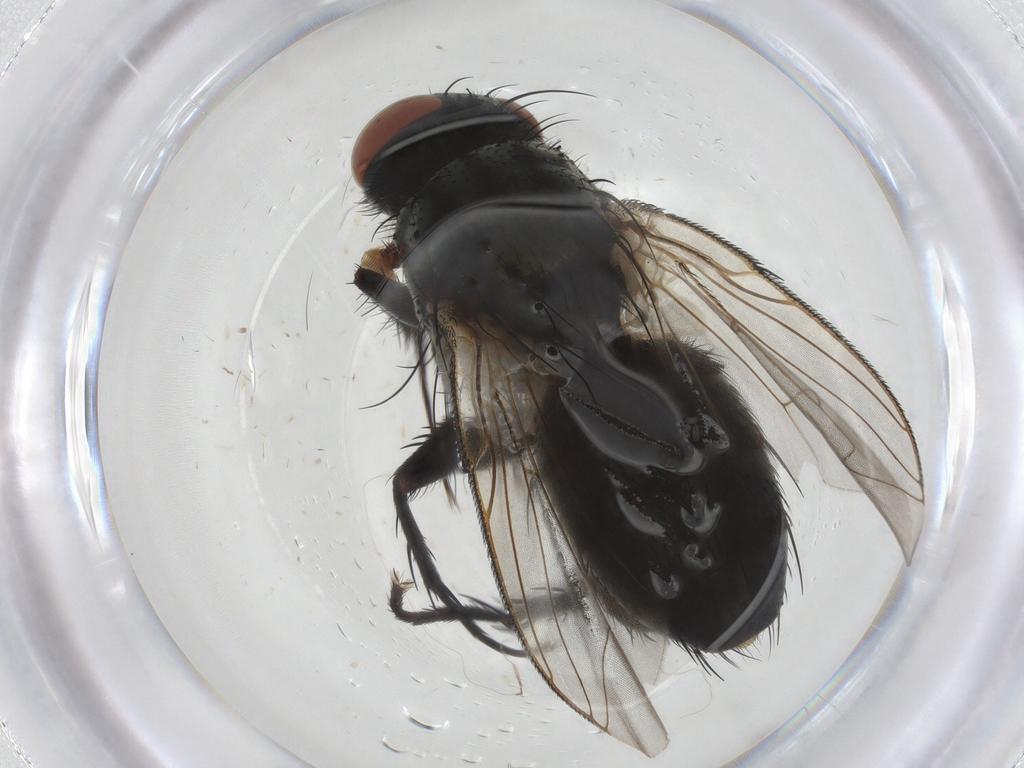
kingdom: Animalia
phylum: Arthropoda
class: Insecta
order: Diptera
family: Sarcophagidae
